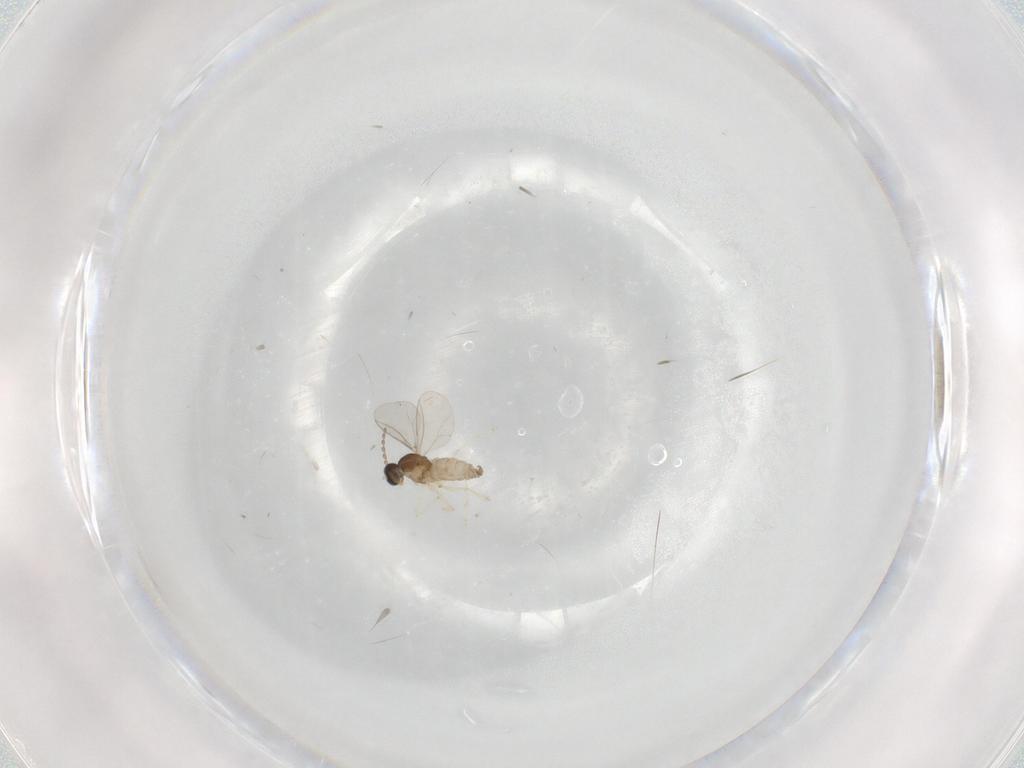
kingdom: Animalia
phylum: Arthropoda
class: Insecta
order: Diptera
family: Cecidomyiidae
